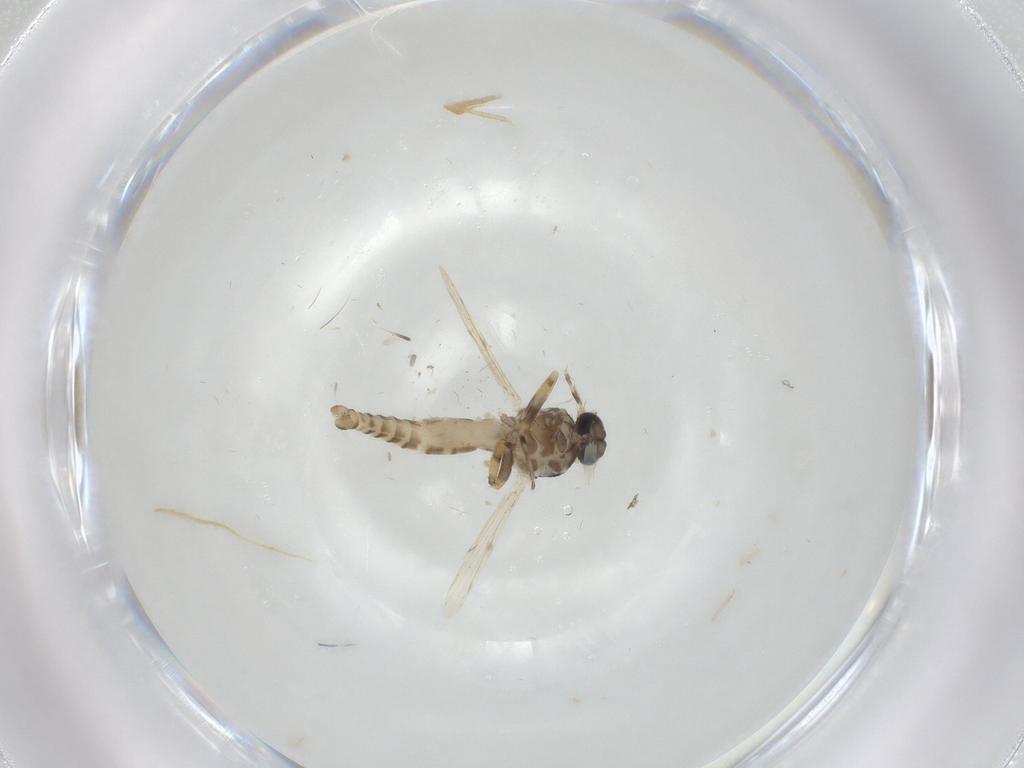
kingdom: Animalia
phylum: Arthropoda
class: Insecta
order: Diptera
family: Ceratopogonidae
